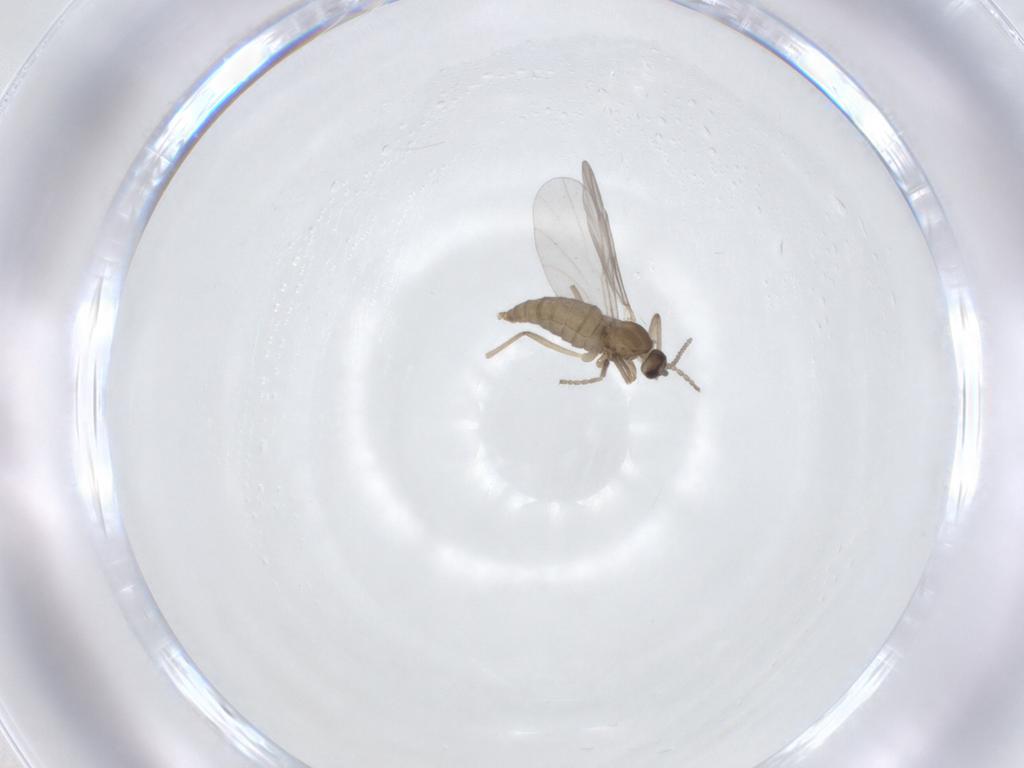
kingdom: Animalia
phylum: Arthropoda
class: Insecta
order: Diptera
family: Cecidomyiidae
